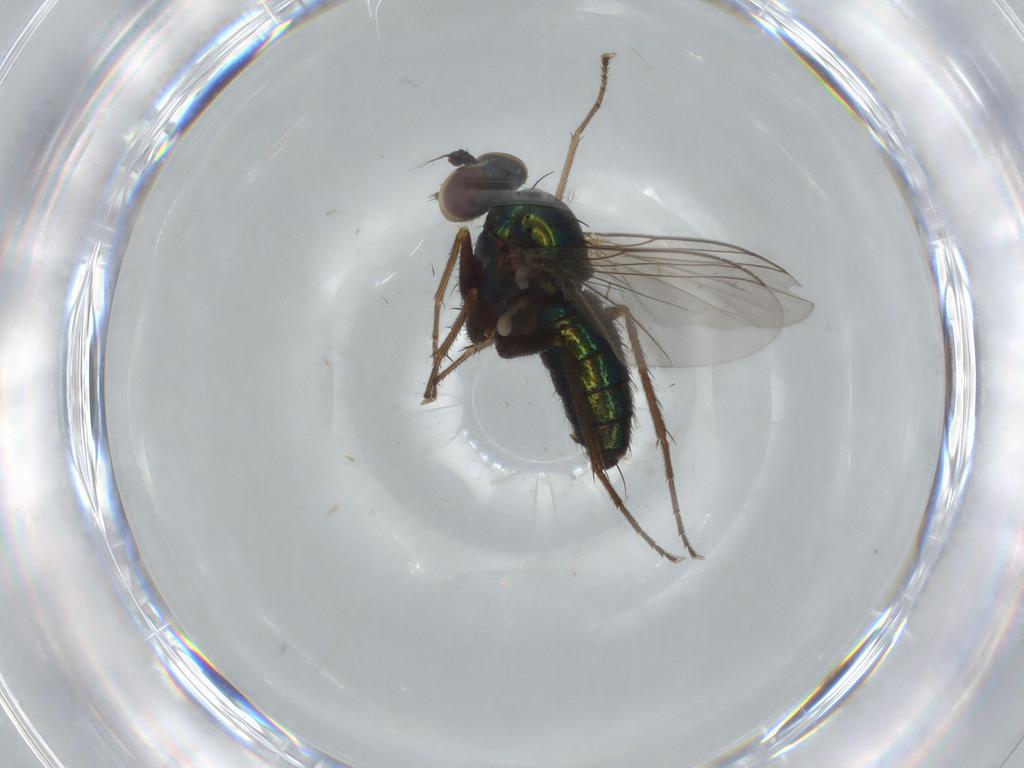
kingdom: Animalia
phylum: Arthropoda
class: Insecta
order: Diptera
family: Dolichopodidae
